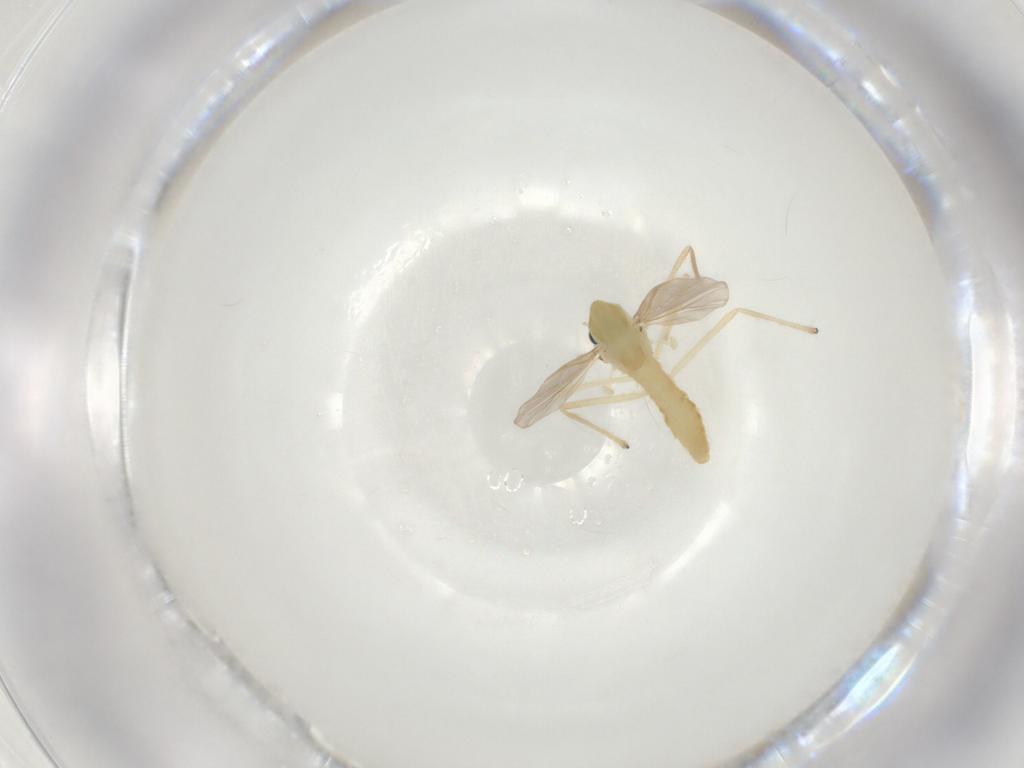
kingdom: Animalia
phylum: Arthropoda
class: Insecta
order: Diptera
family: Chironomidae
